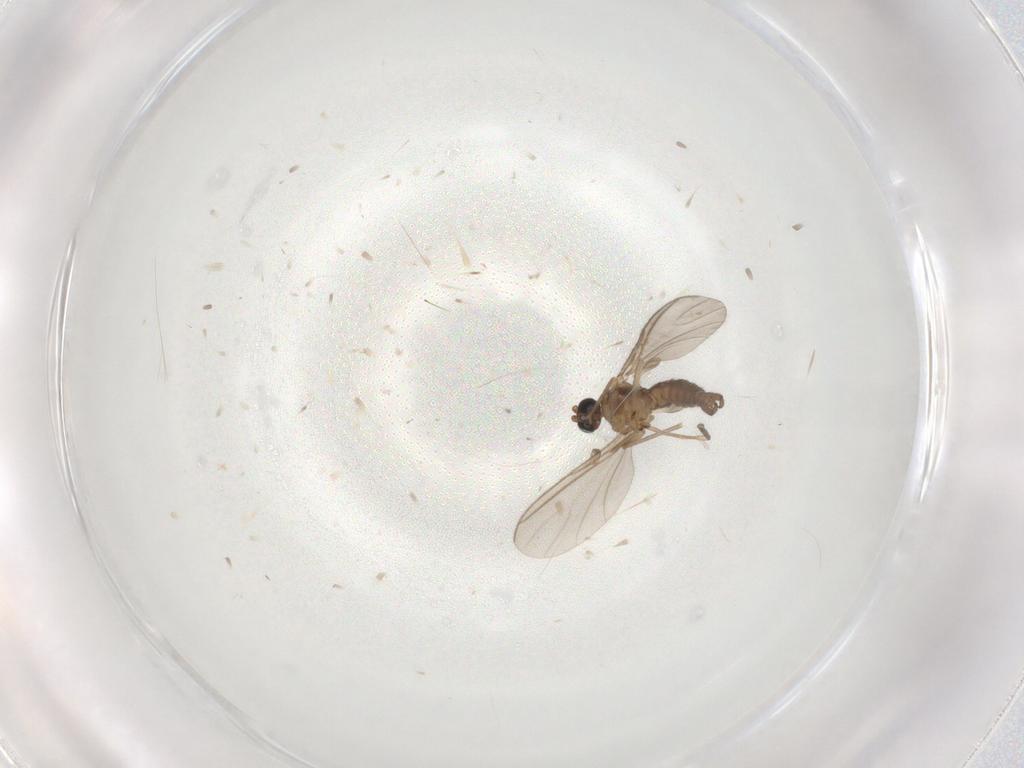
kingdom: Animalia
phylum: Arthropoda
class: Insecta
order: Diptera
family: Sciaridae
